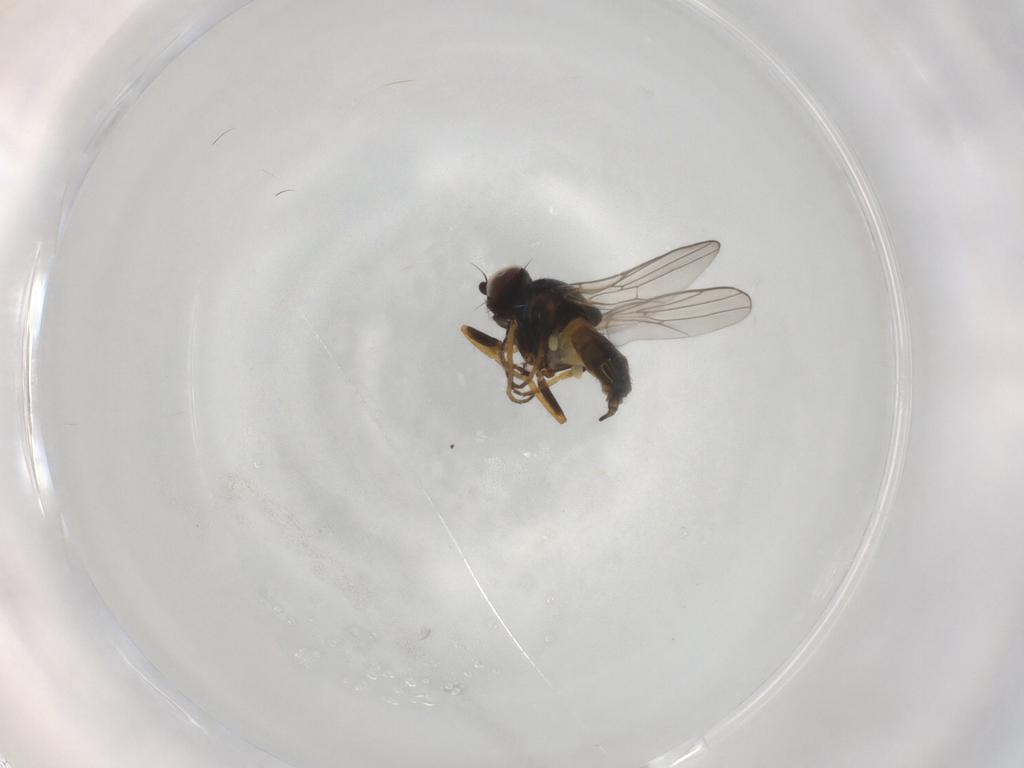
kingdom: Animalia
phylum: Arthropoda
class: Insecta
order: Diptera
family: Chloropidae
